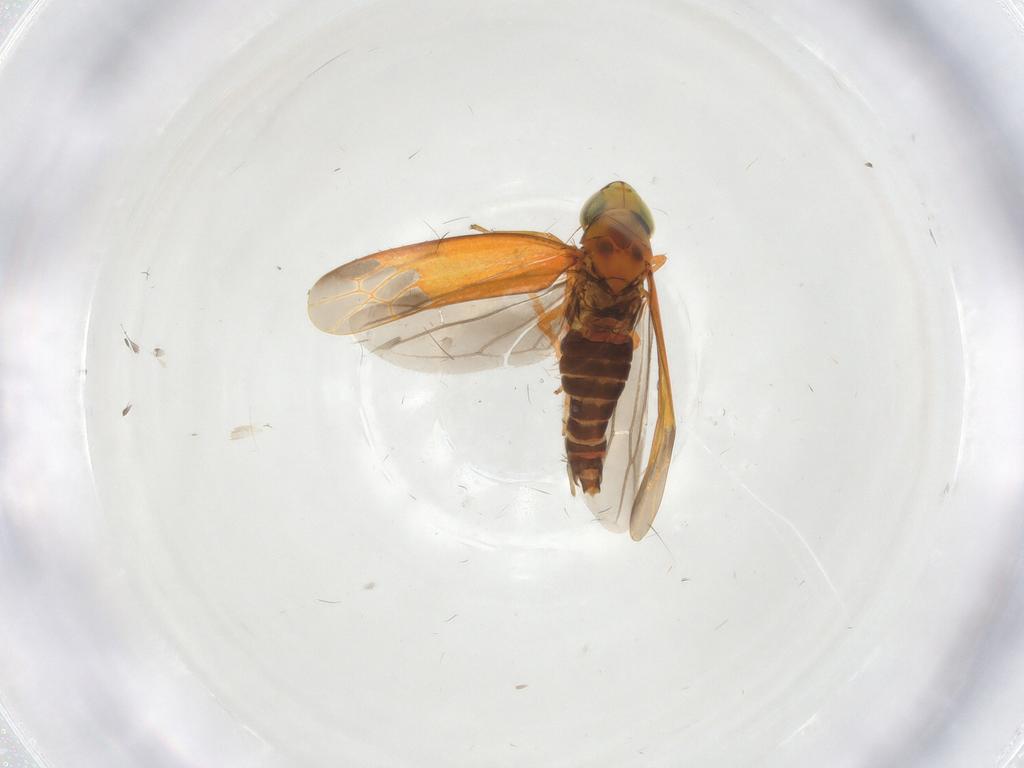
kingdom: Animalia
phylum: Arthropoda
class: Insecta
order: Hemiptera
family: Cicadellidae
